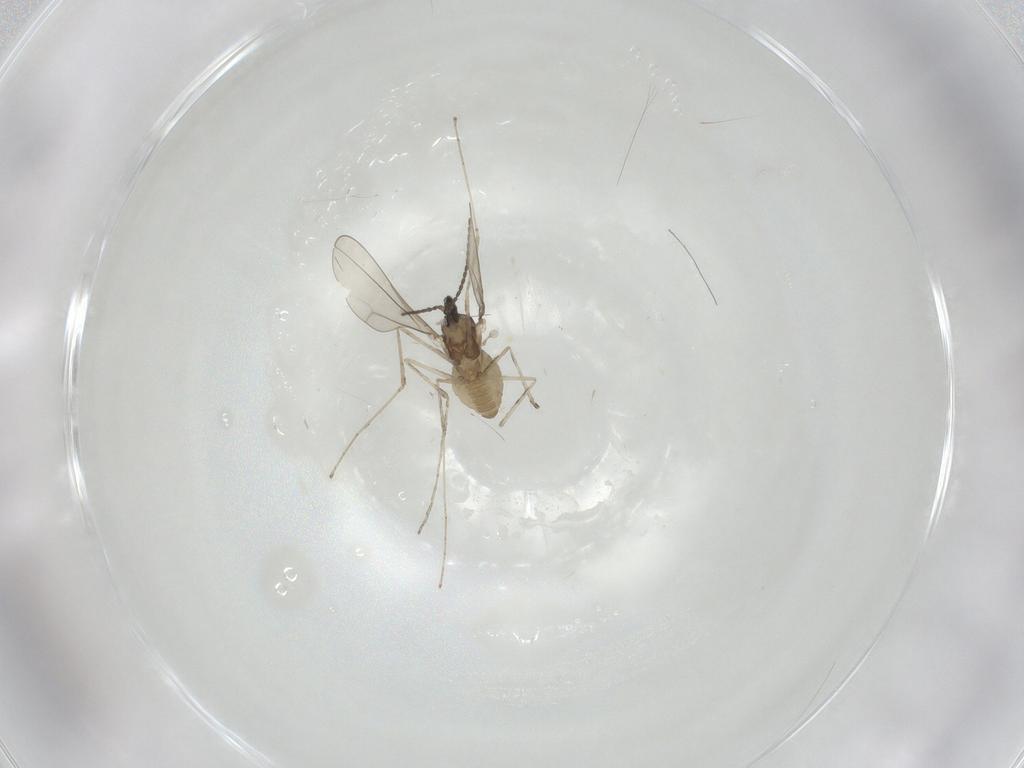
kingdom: Animalia
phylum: Arthropoda
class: Insecta
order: Diptera
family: Cecidomyiidae
